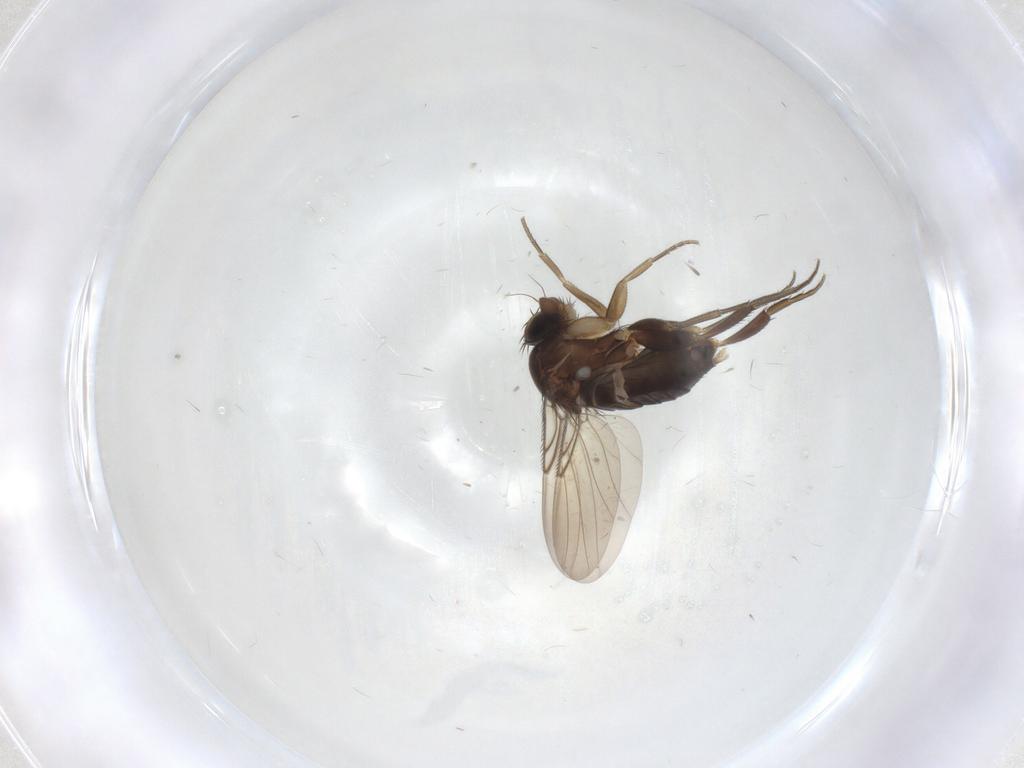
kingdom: Animalia
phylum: Arthropoda
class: Insecta
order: Diptera
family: Phoridae
